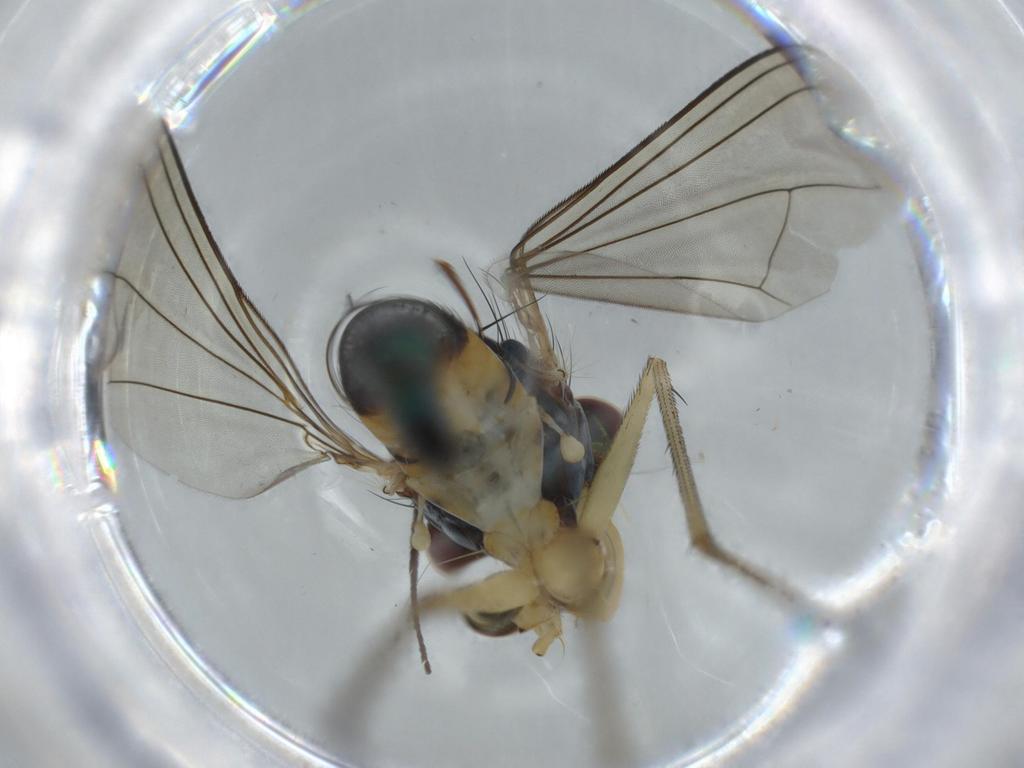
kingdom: Animalia
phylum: Arthropoda
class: Insecta
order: Diptera
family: Dolichopodidae
